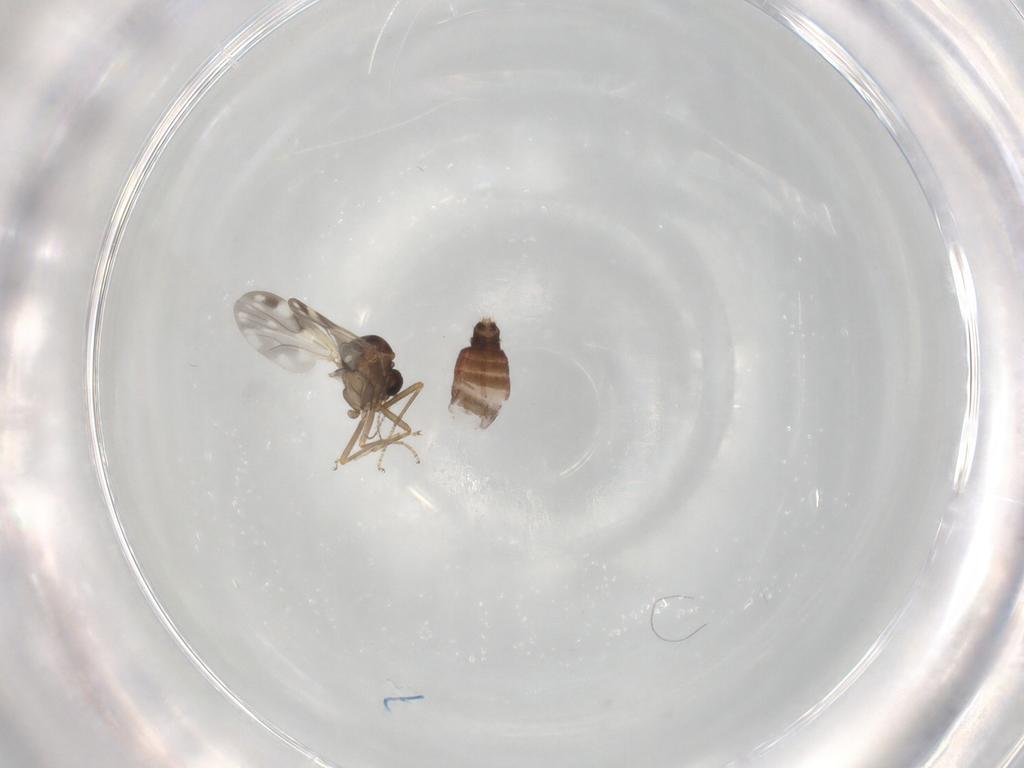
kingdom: Animalia
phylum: Arthropoda
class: Insecta
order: Diptera
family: Ceratopogonidae
